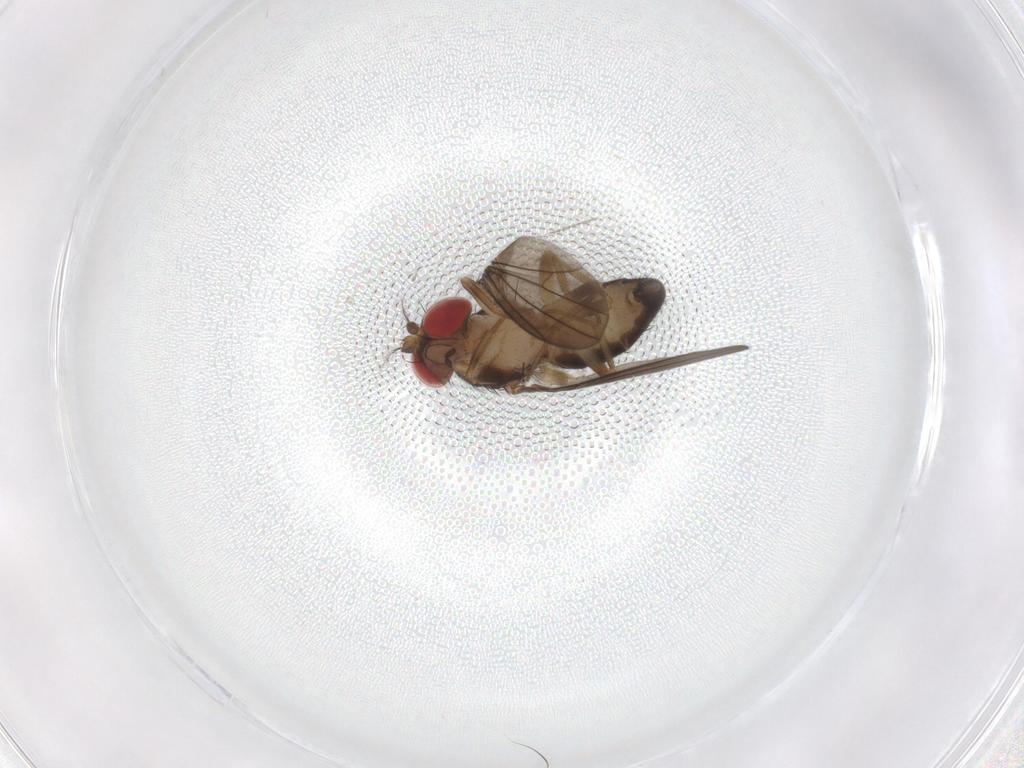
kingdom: Animalia
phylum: Arthropoda
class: Insecta
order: Diptera
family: Drosophilidae
